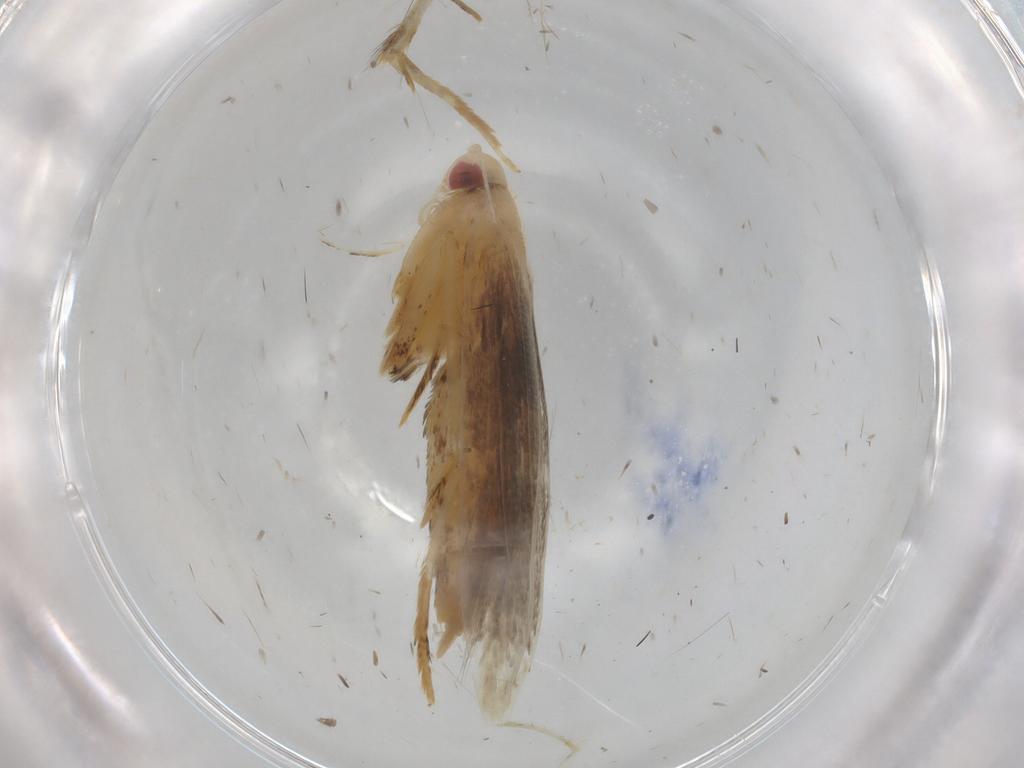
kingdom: Animalia
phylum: Arthropoda
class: Insecta
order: Lepidoptera
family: Cosmopterigidae
